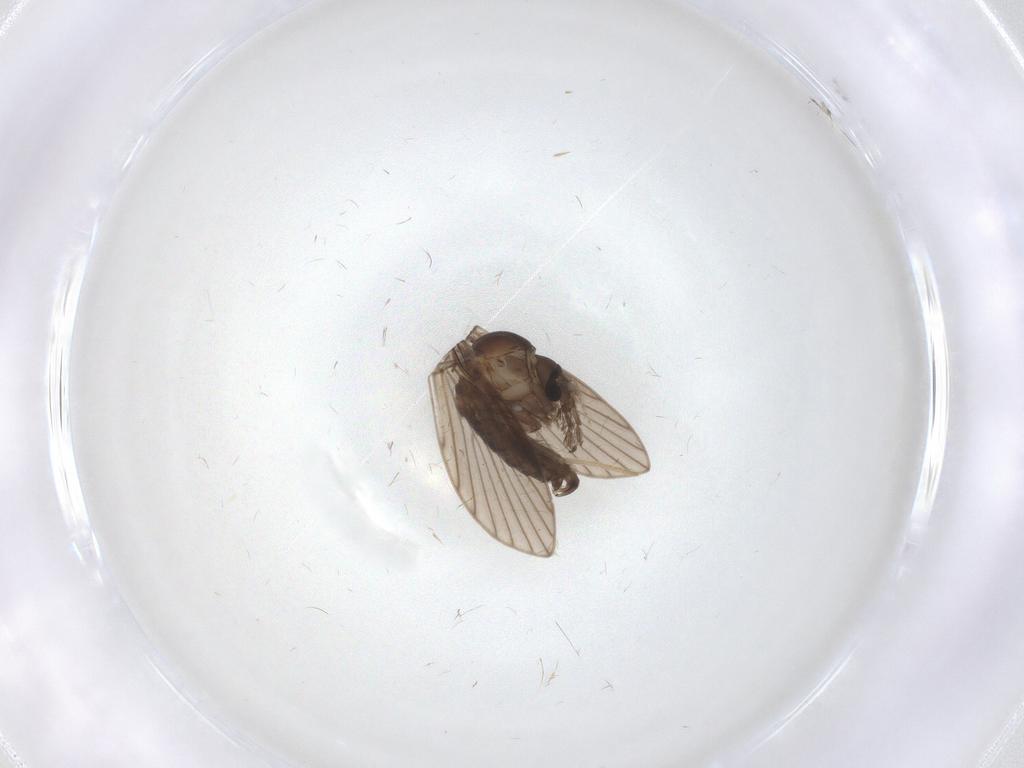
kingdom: Animalia
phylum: Arthropoda
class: Insecta
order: Diptera
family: Psychodidae
